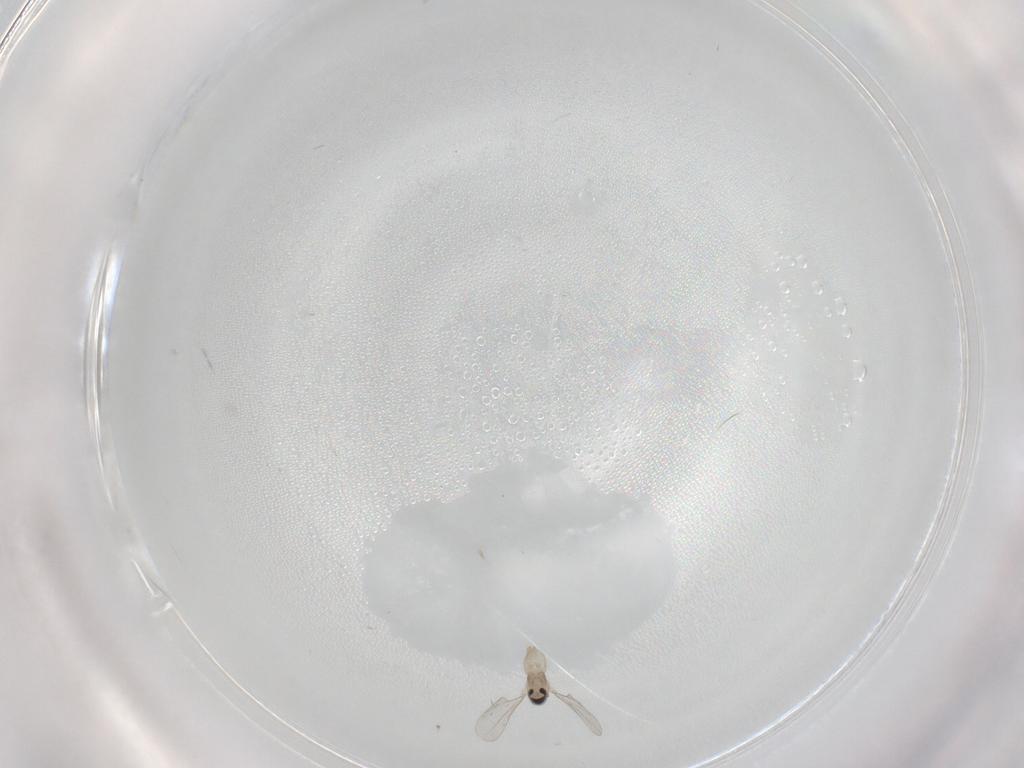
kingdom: Animalia
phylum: Arthropoda
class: Insecta
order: Diptera
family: Cecidomyiidae
